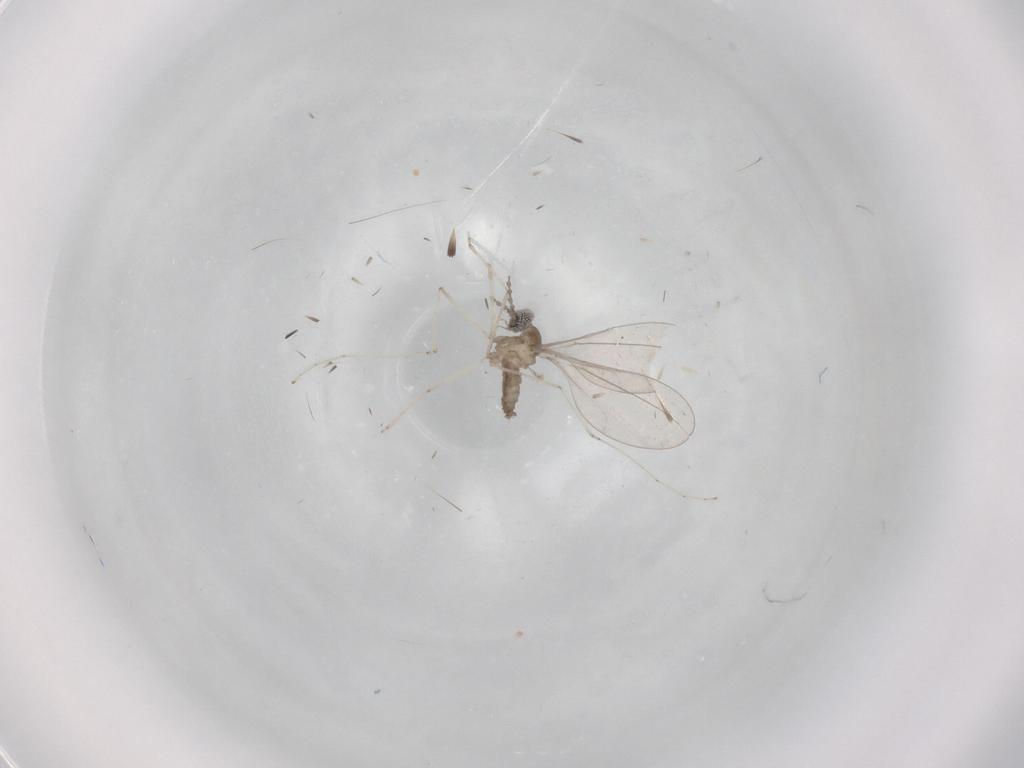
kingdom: Animalia
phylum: Arthropoda
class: Insecta
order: Diptera
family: Cecidomyiidae
